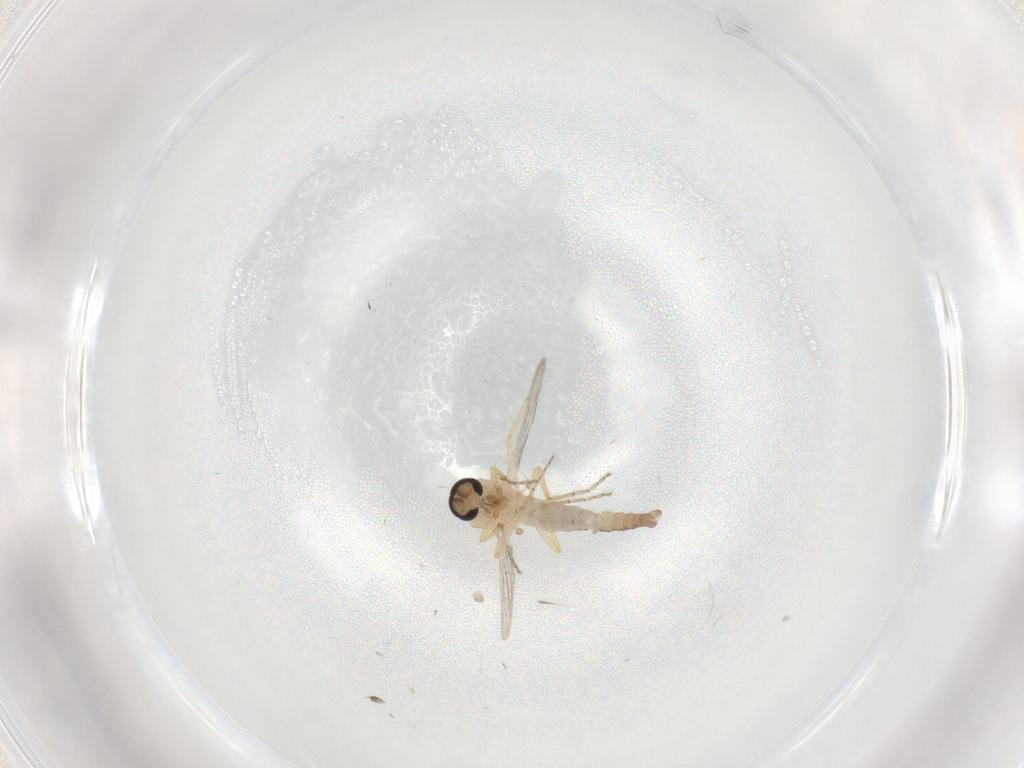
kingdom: Animalia
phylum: Arthropoda
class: Insecta
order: Diptera
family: Ceratopogonidae
